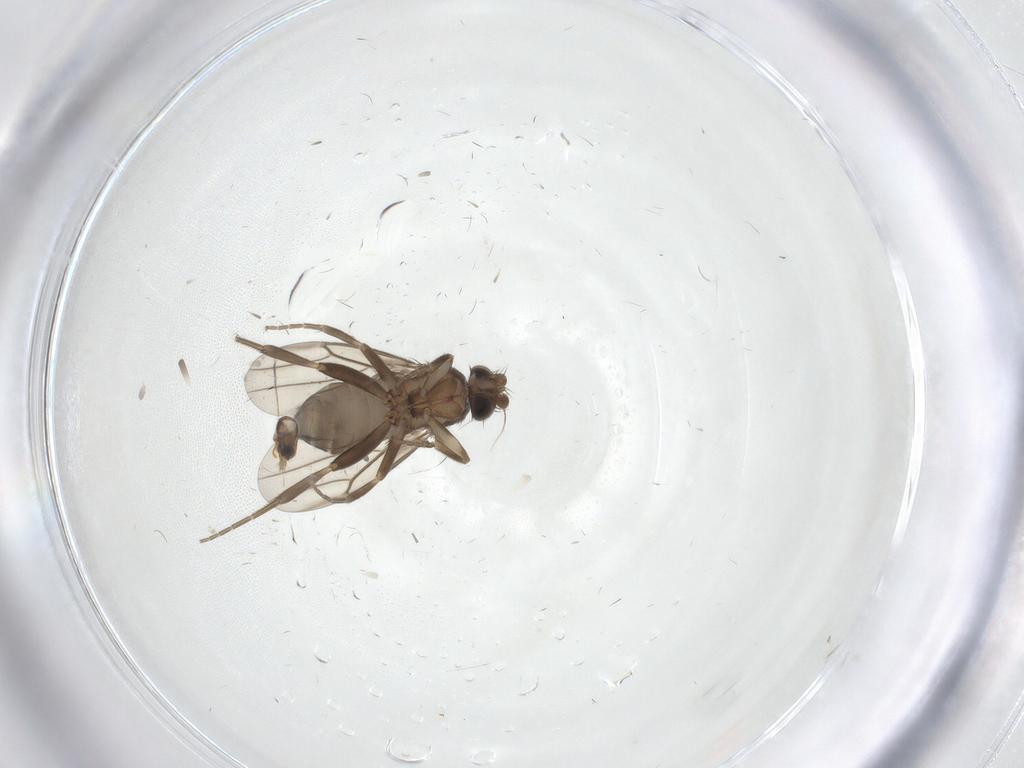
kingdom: Animalia
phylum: Arthropoda
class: Insecta
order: Diptera
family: Phoridae
